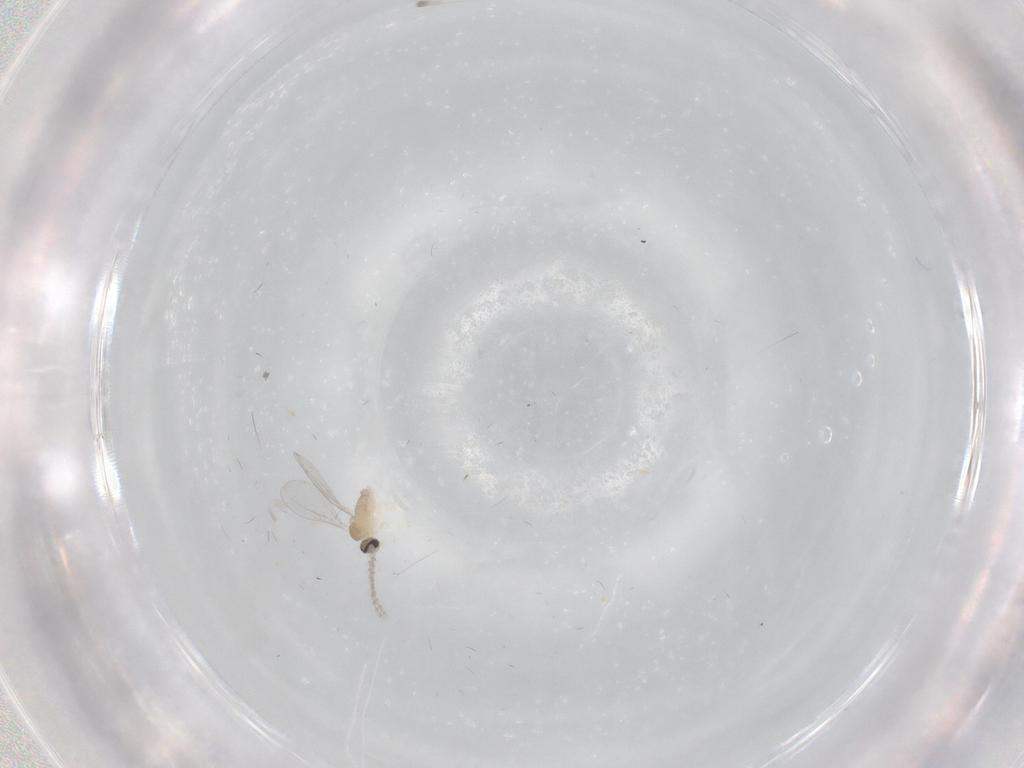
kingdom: Animalia
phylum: Arthropoda
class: Insecta
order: Diptera
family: Cecidomyiidae
